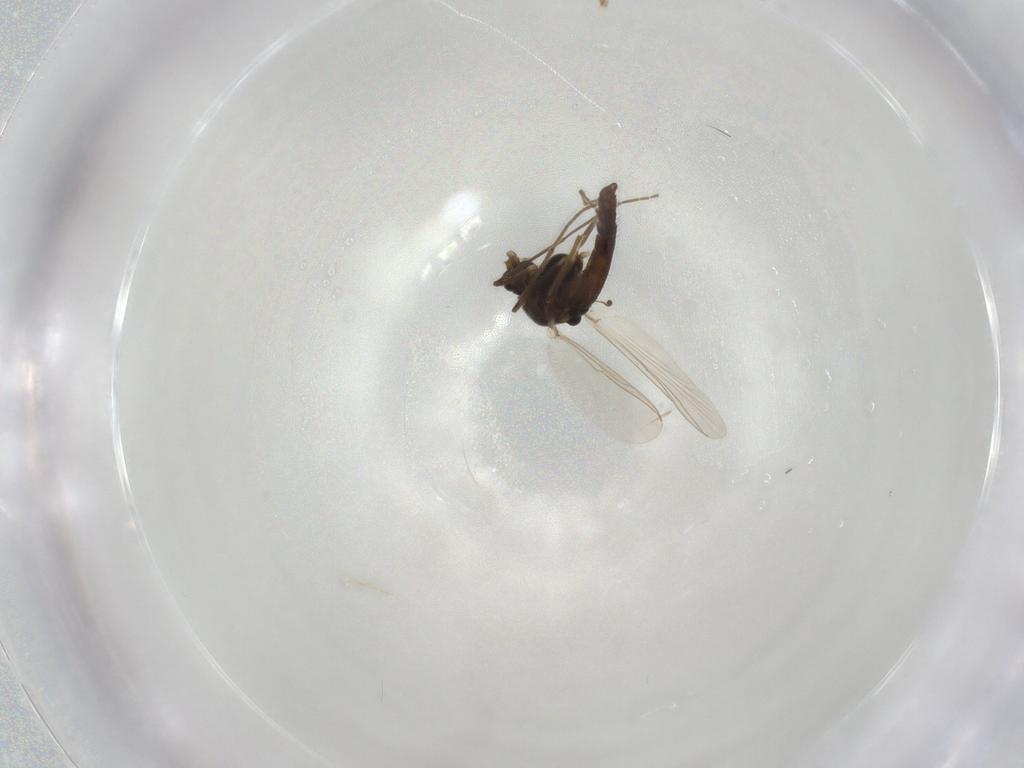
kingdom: Animalia
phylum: Arthropoda
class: Insecta
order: Diptera
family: Chironomidae
